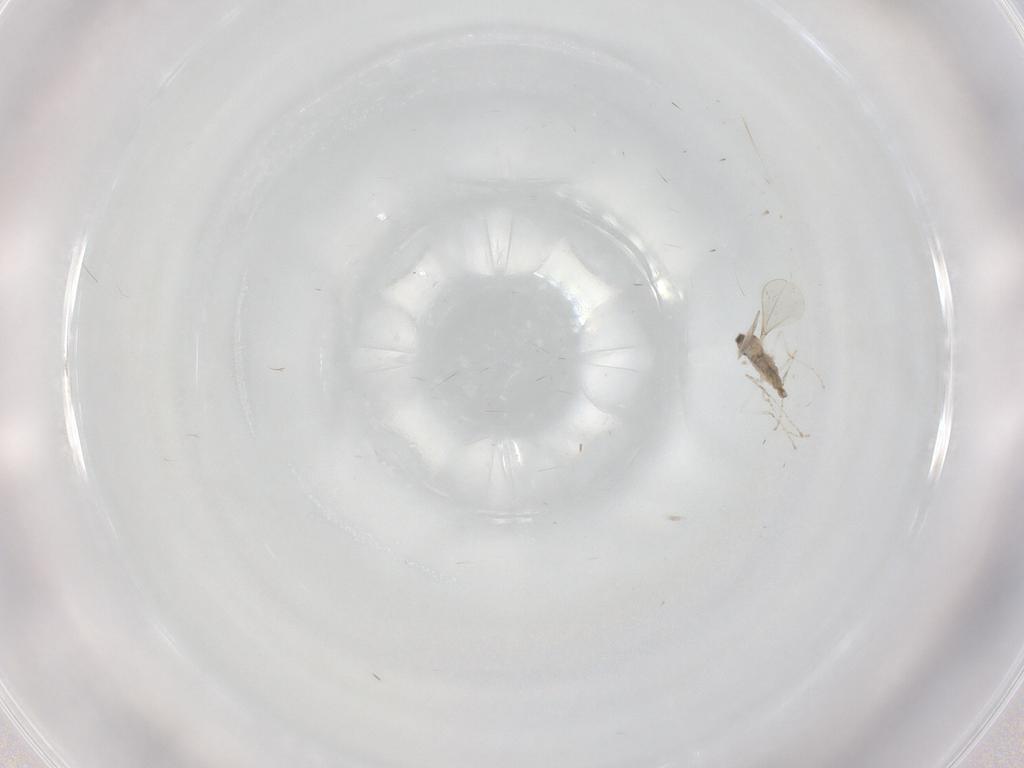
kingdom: Animalia
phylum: Arthropoda
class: Insecta
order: Diptera
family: Cecidomyiidae
